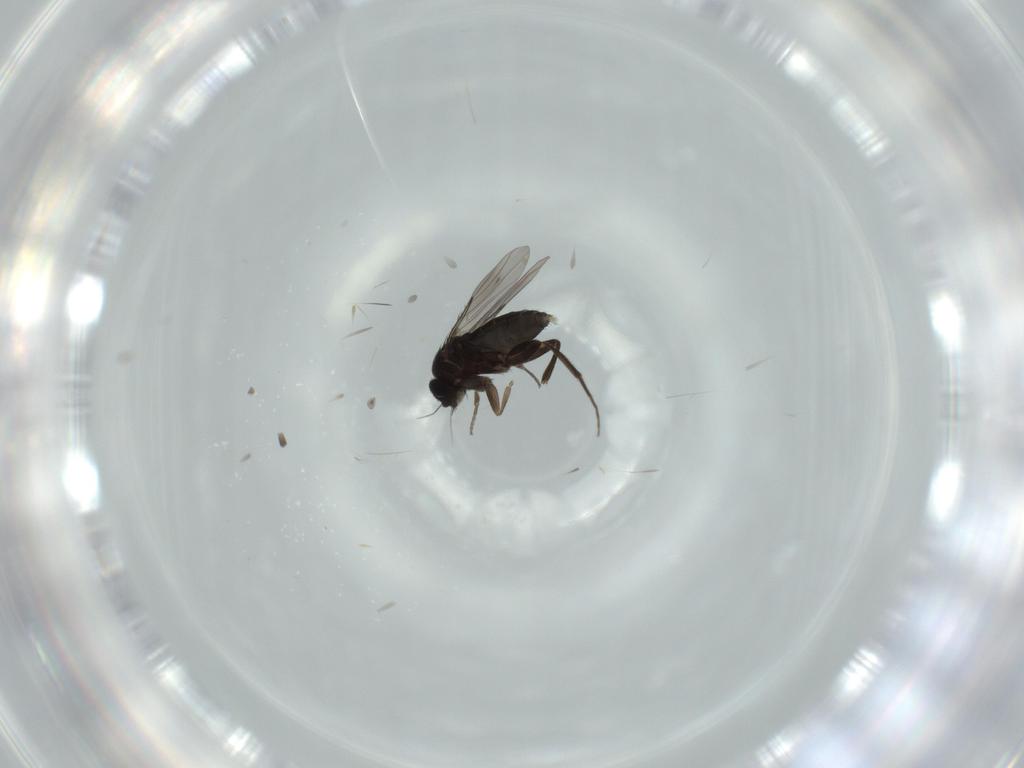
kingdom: Animalia
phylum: Arthropoda
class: Insecta
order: Diptera
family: Phoridae
